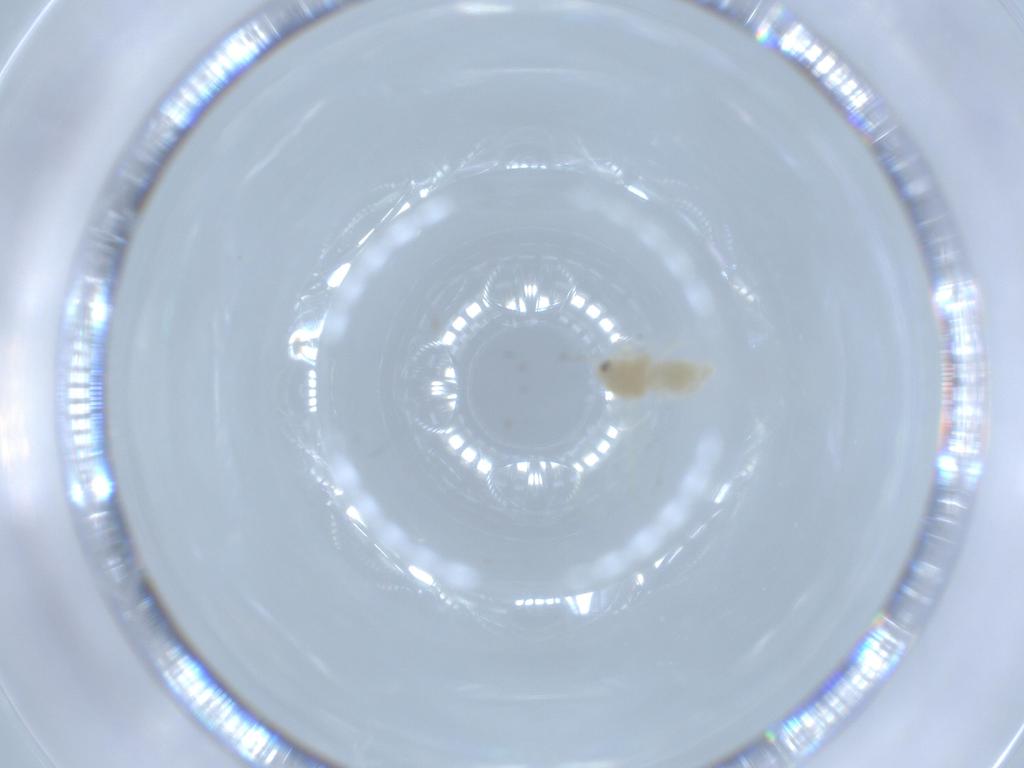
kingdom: Animalia
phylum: Arthropoda
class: Insecta
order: Hemiptera
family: Aleyrodidae
